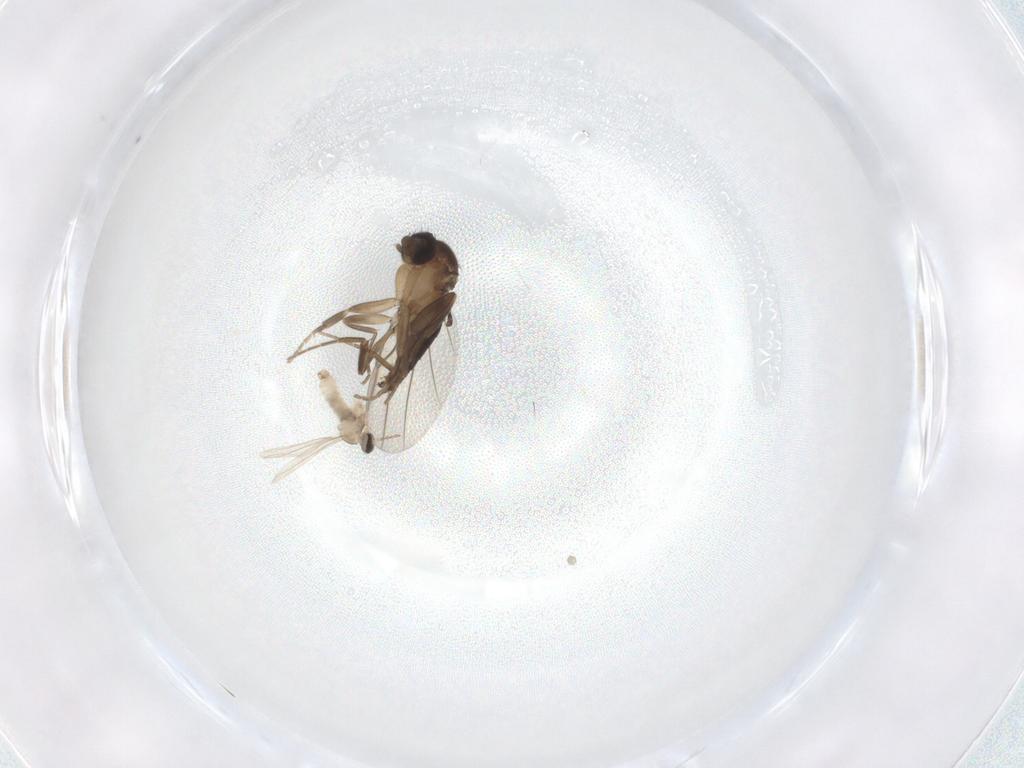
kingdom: Animalia
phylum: Arthropoda
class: Insecta
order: Diptera
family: Phoridae
